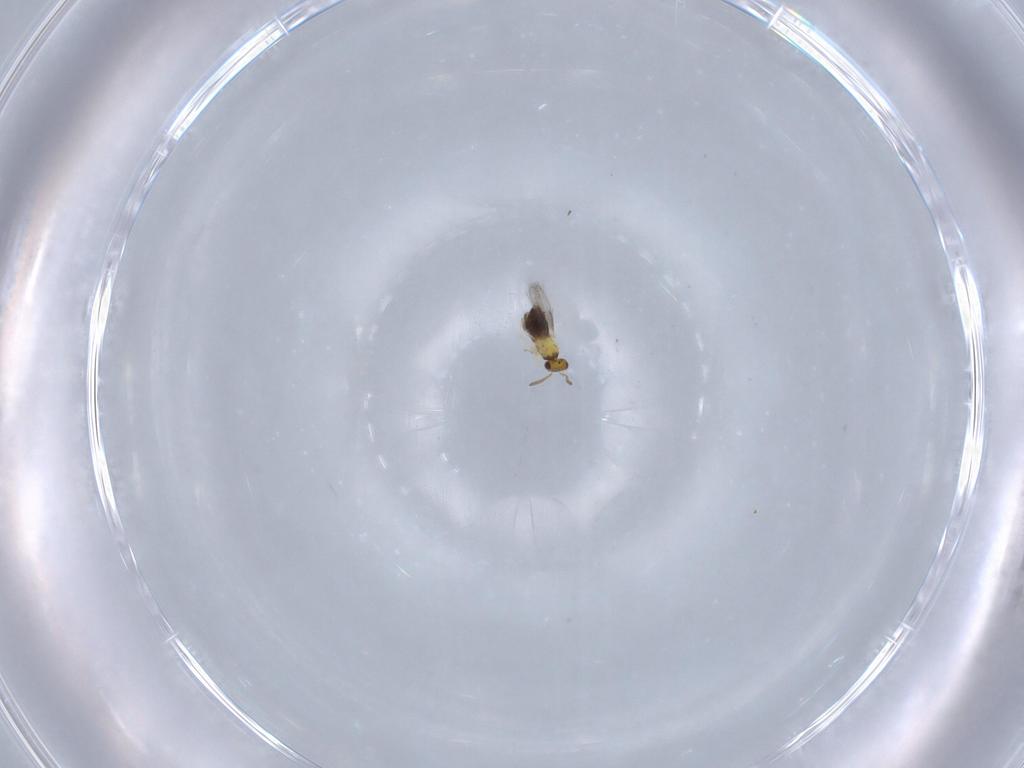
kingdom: Animalia
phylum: Arthropoda
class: Insecta
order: Hymenoptera
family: Aphelinidae
